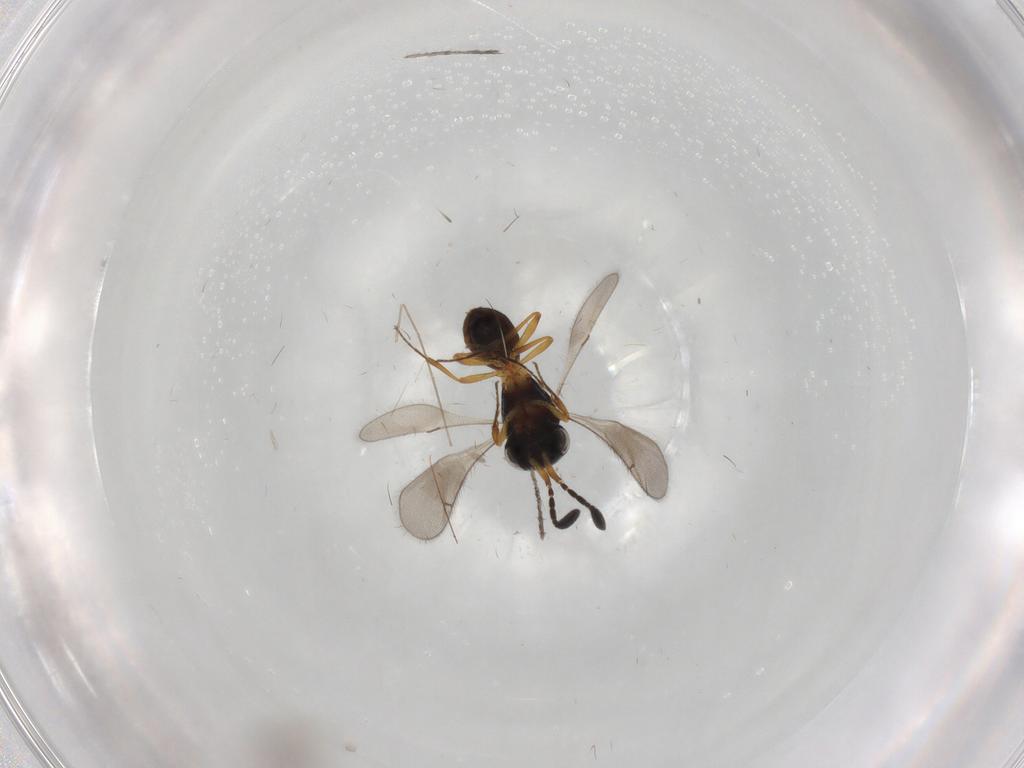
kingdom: Animalia
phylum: Arthropoda
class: Insecta
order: Hymenoptera
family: Scelionidae
